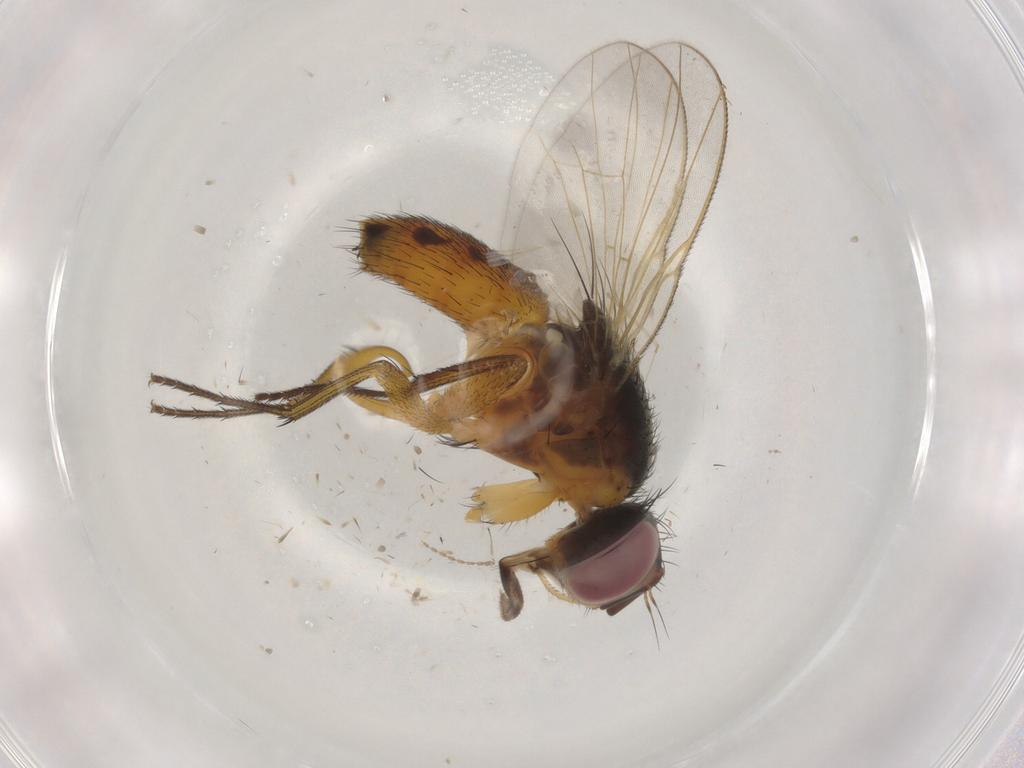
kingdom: Animalia
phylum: Arthropoda
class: Insecta
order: Diptera
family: Muscidae
